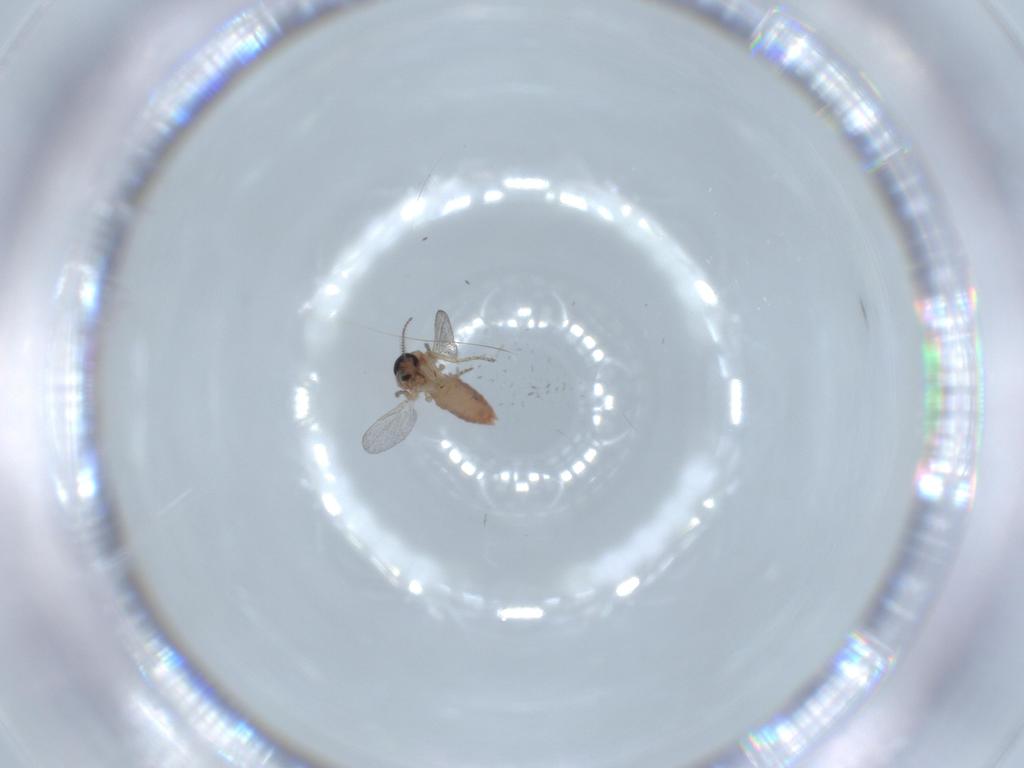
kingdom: Animalia
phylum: Arthropoda
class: Insecta
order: Diptera
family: Ceratopogonidae
